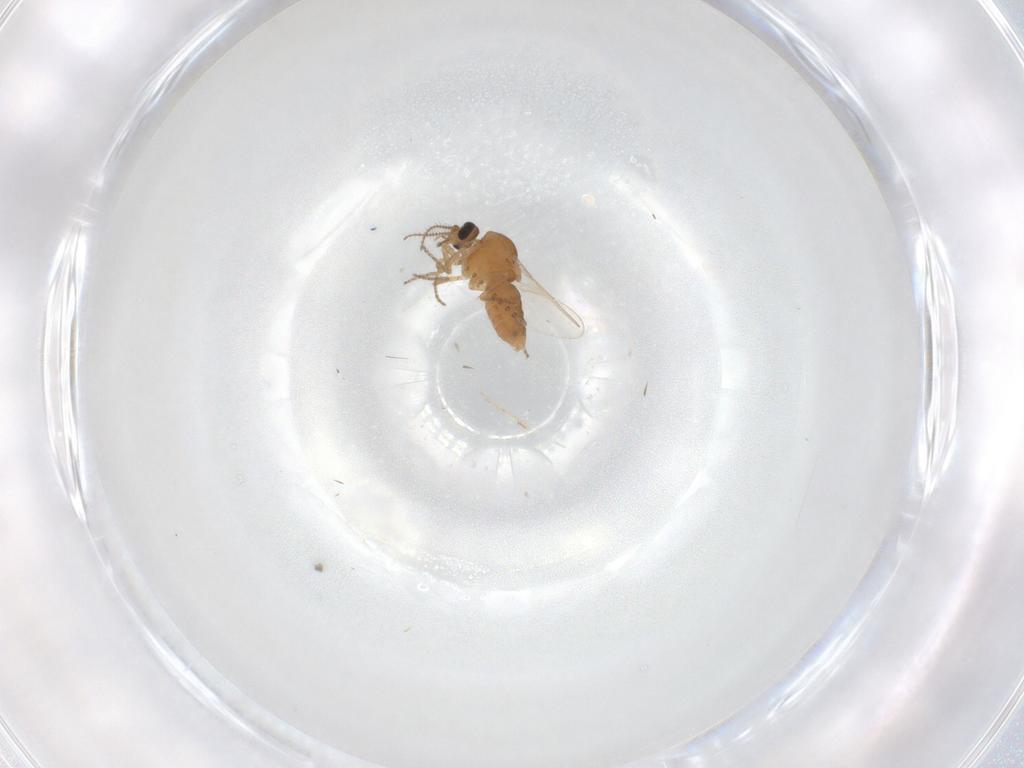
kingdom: Animalia
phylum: Arthropoda
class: Insecta
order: Diptera
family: Ceratopogonidae
